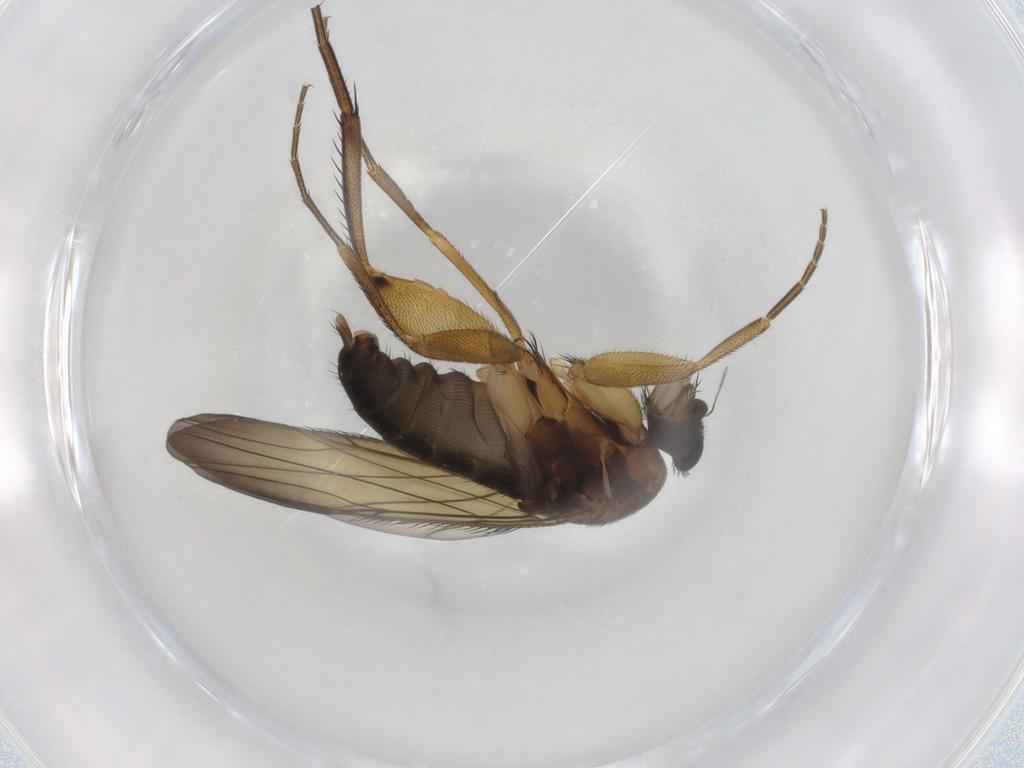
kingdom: Animalia
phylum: Arthropoda
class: Insecta
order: Diptera
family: Phoridae
